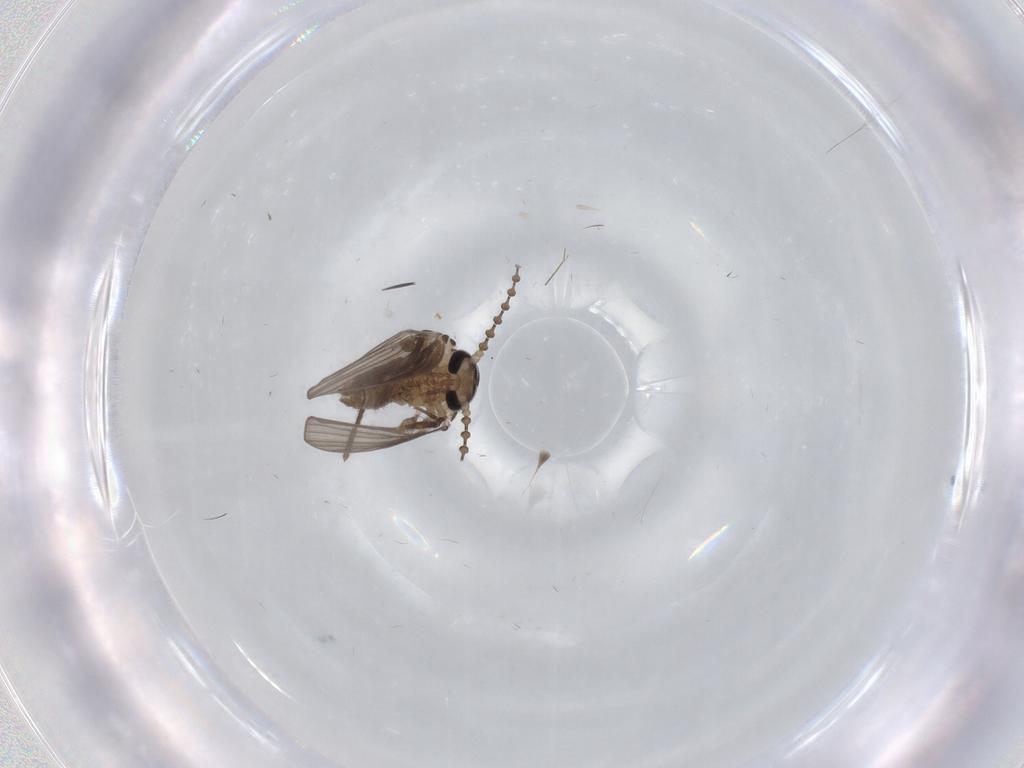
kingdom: Animalia
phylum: Arthropoda
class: Insecta
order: Diptera
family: Psychodidae
